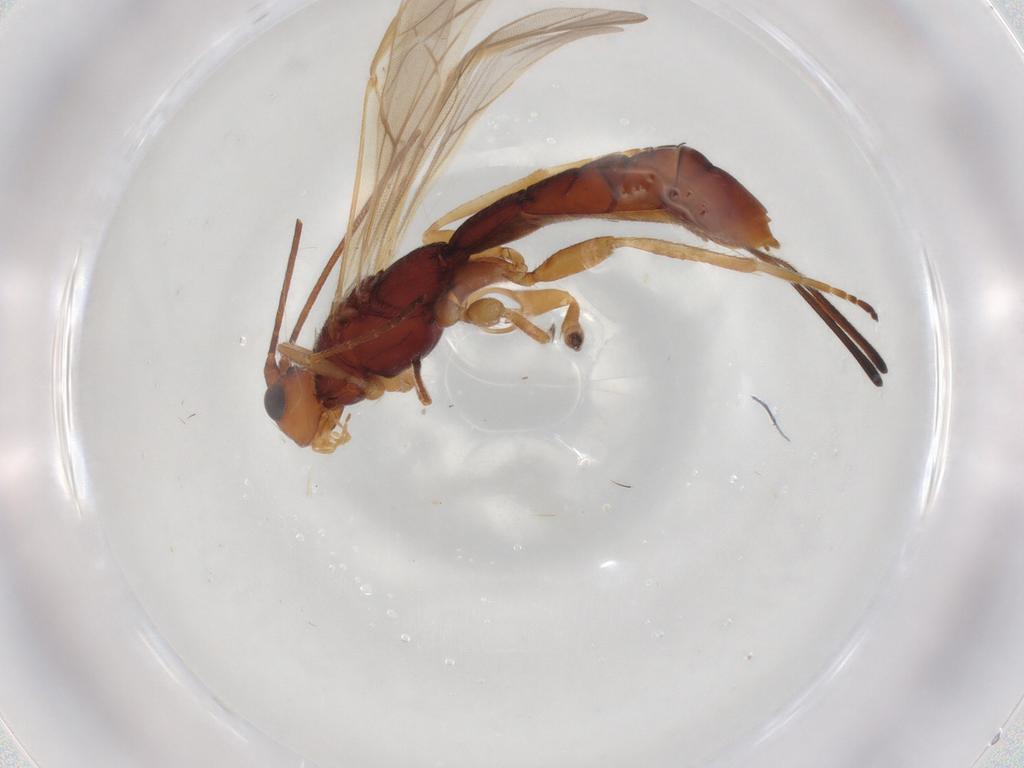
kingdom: Animalia
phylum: Arthropoda
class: Insecta
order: Hymenoptera
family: Braconidae
